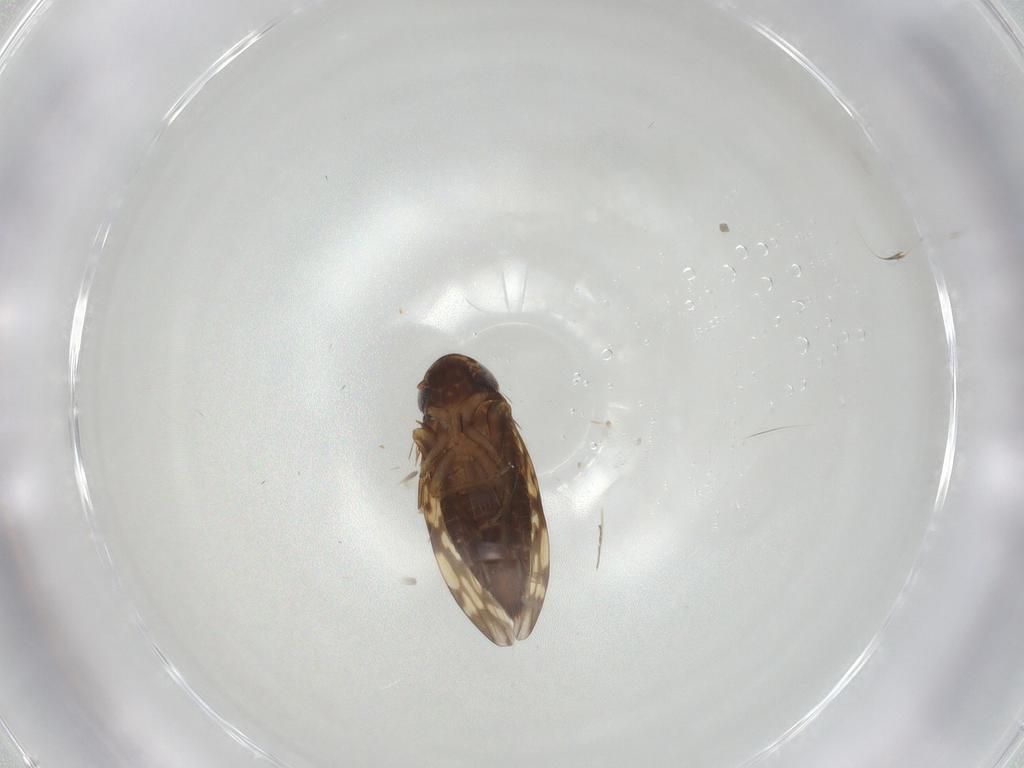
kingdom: Animalia
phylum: Arthropoda
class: Insecta
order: Hemiptera
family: Cicadellidae
